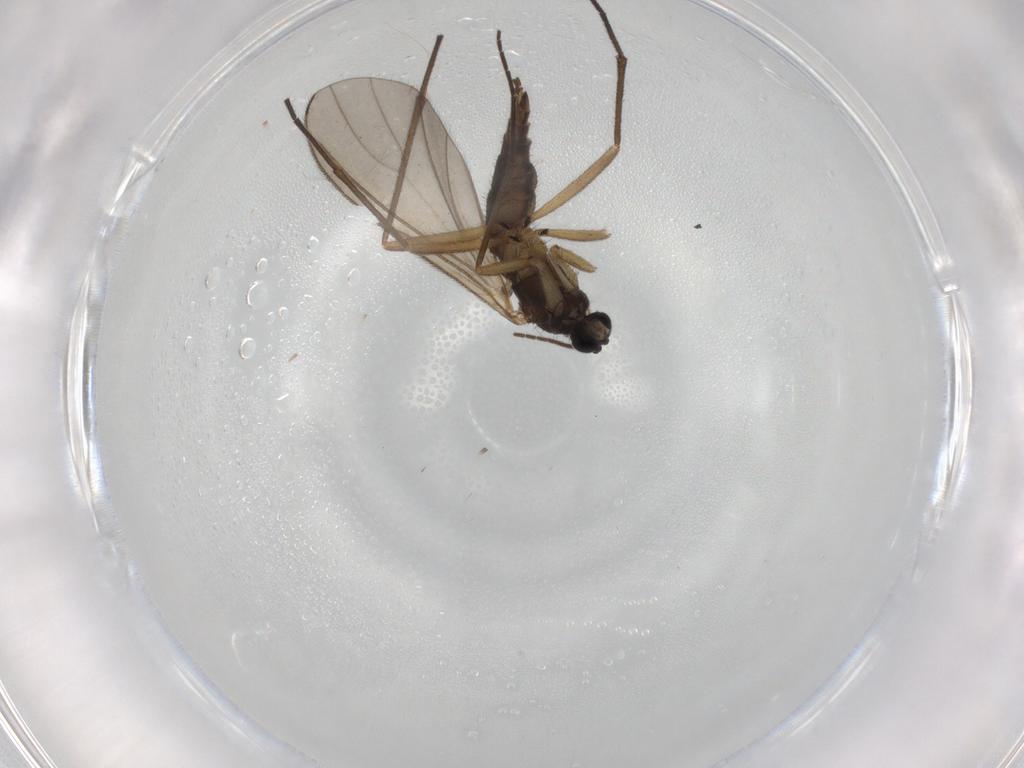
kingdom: Animalia
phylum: Arthropoda
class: Insecta
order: Diptera
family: Sciaridae
